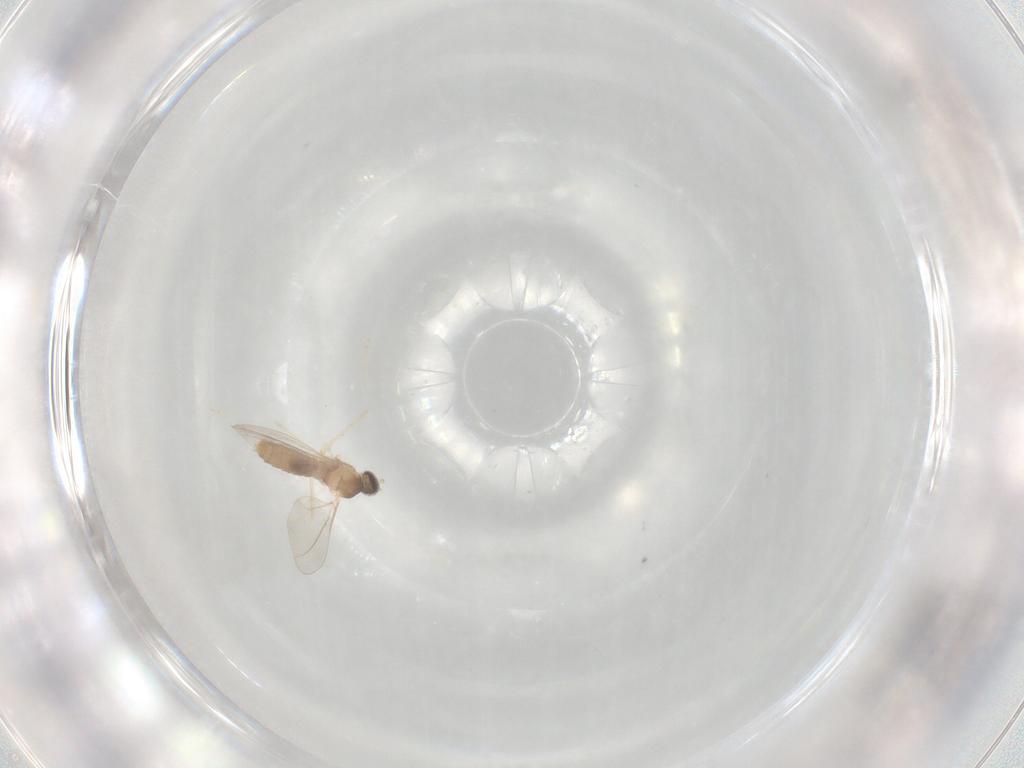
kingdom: Animalia
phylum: Arthropoda
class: Insecta
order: Diptera
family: Cecidomyiidae
